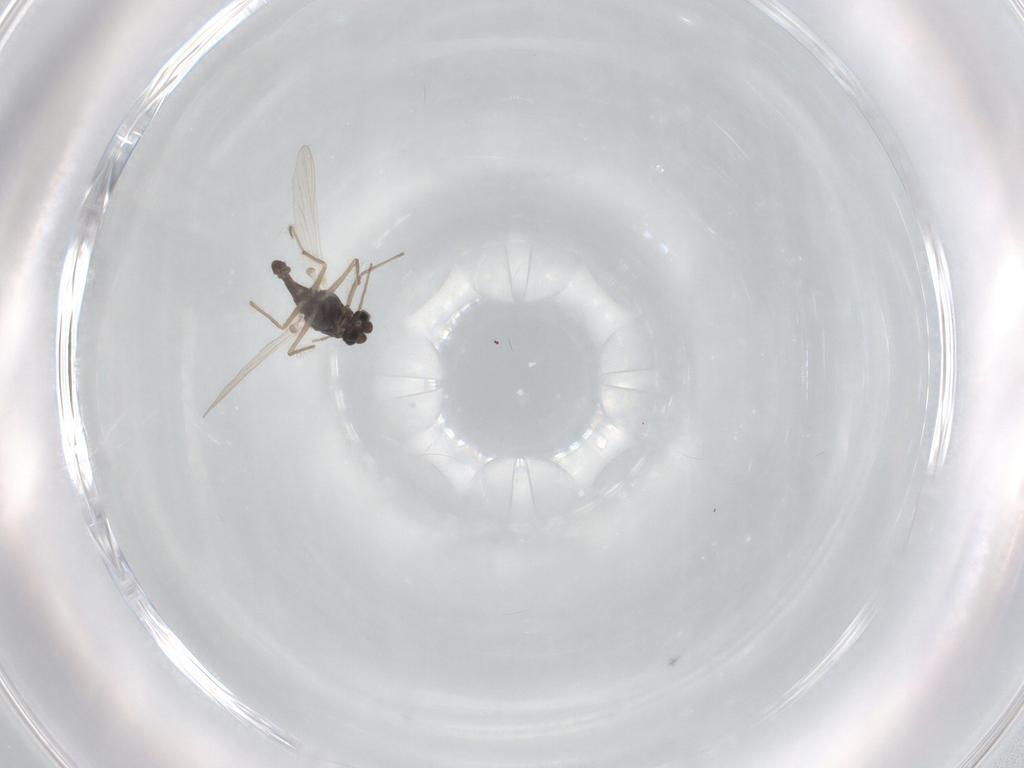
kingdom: Animalia
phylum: Arthropoda
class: Insecta
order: Diptera
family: Chironomidae
